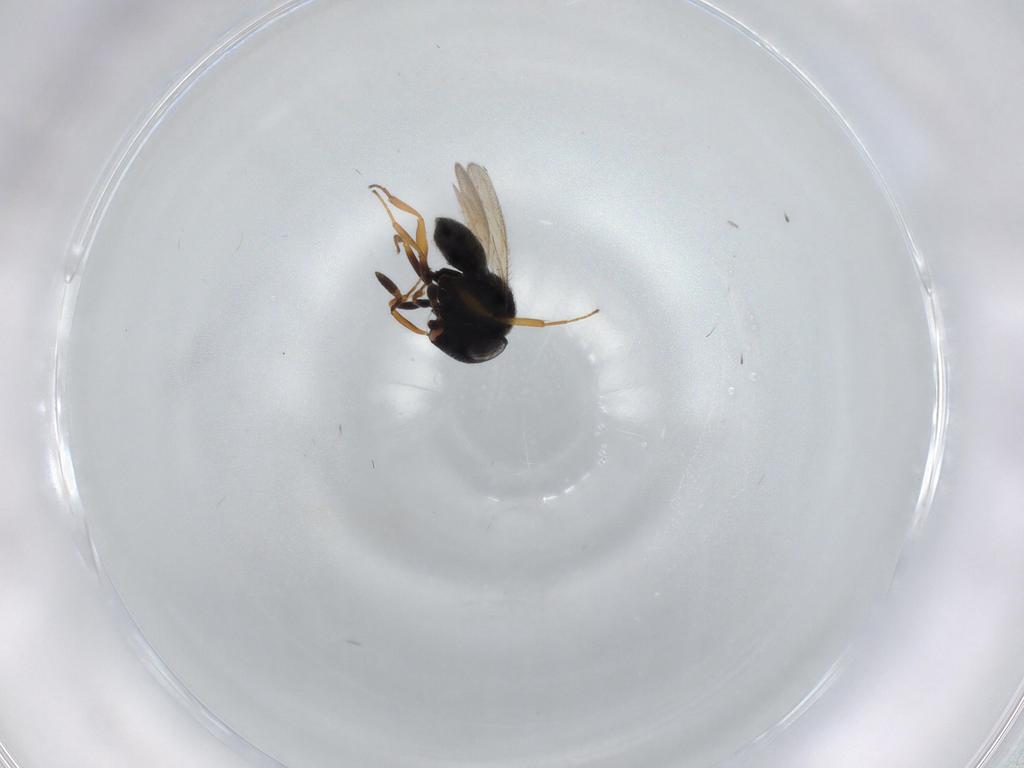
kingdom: Animalia
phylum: Arthropoda
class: Insecta
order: Hymenoptera
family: Scelionidae
